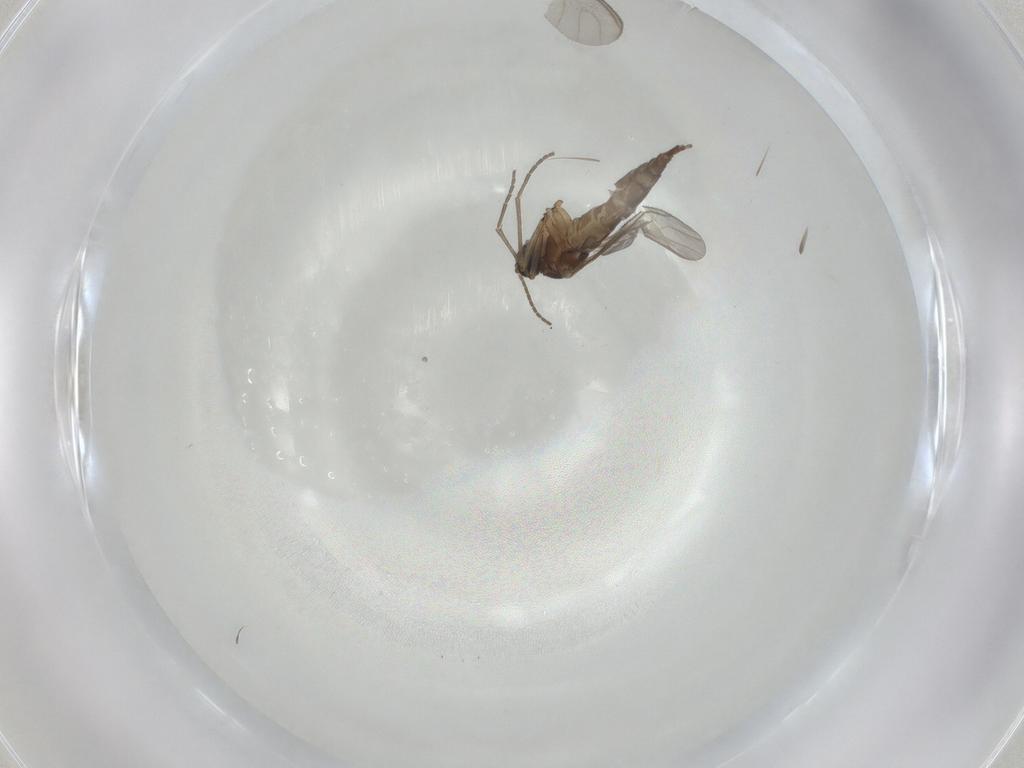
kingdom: Animalia
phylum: Arthropoda
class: Insecta
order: Diptera
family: Sciaridae
